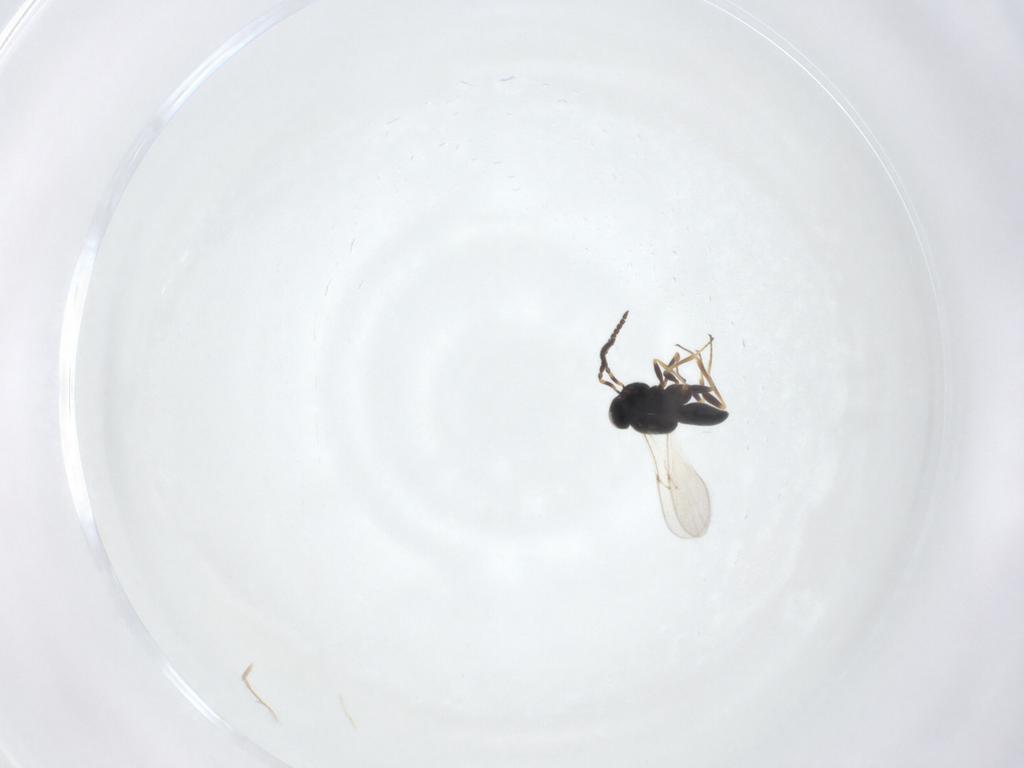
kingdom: Animalia
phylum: Arthropoda
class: Insecta
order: Hymenoptera
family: Scelionidae
